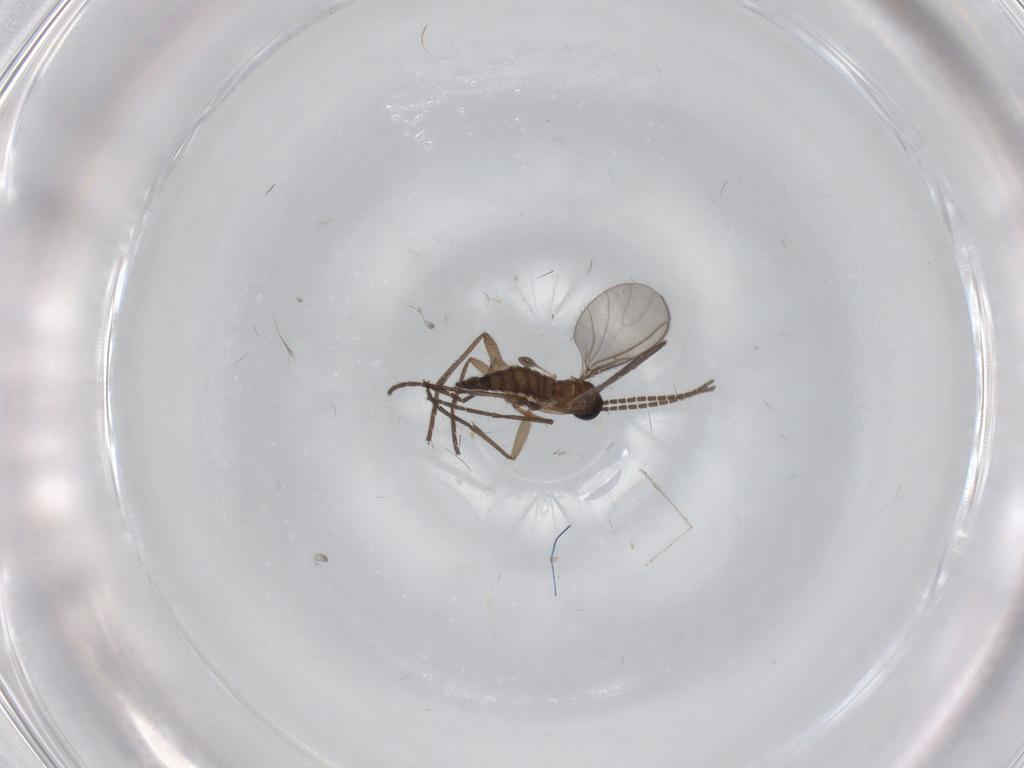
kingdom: Animalia
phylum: Arthropoda
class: Insecta
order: Diptera
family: Sciaridae
